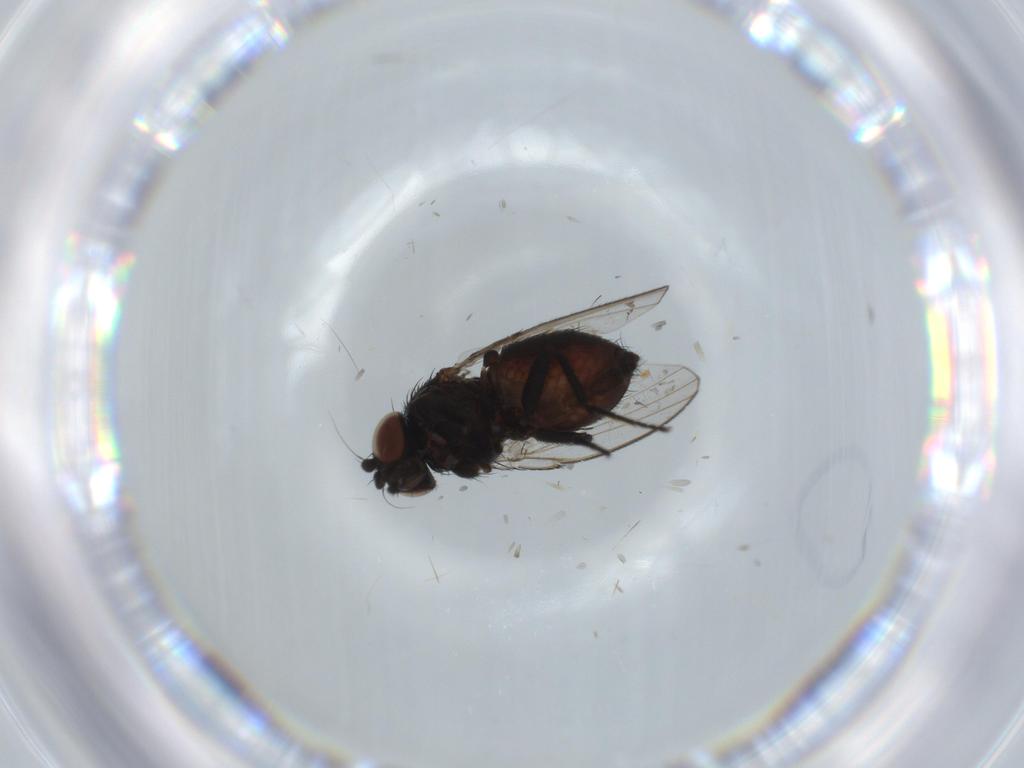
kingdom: Animalia
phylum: Arthropoda
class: Insecta
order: Diptera
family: Milichiidae
